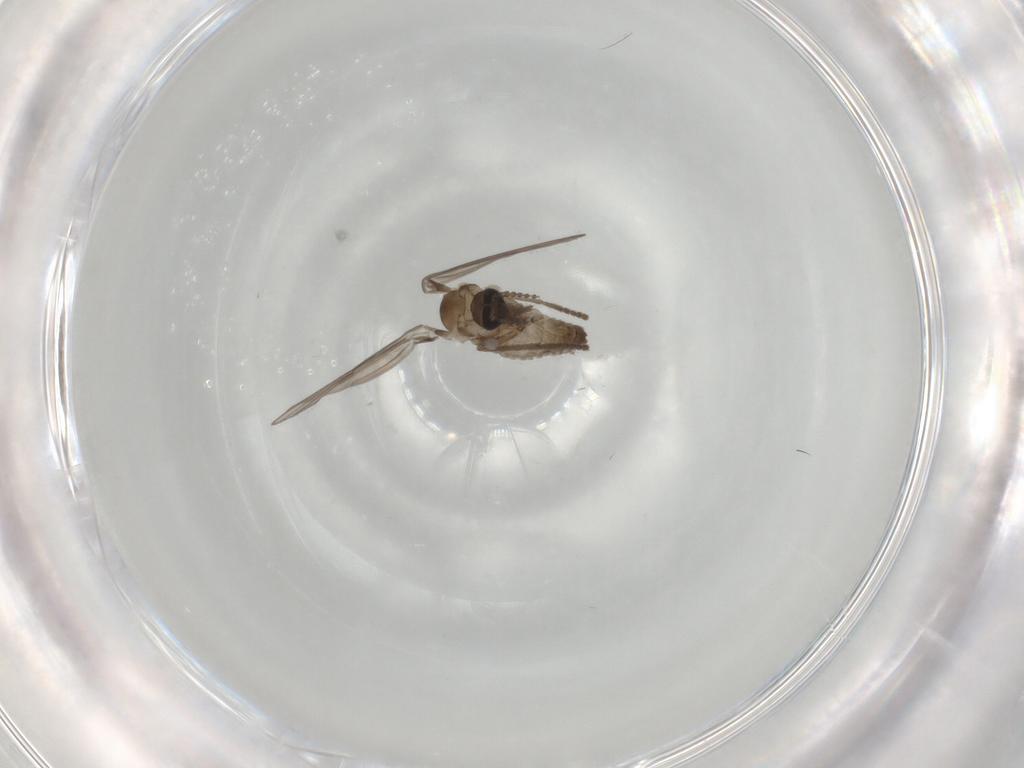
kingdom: Animalia
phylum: Arthropoda
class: Insecta
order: Diptera
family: Psychodidae
